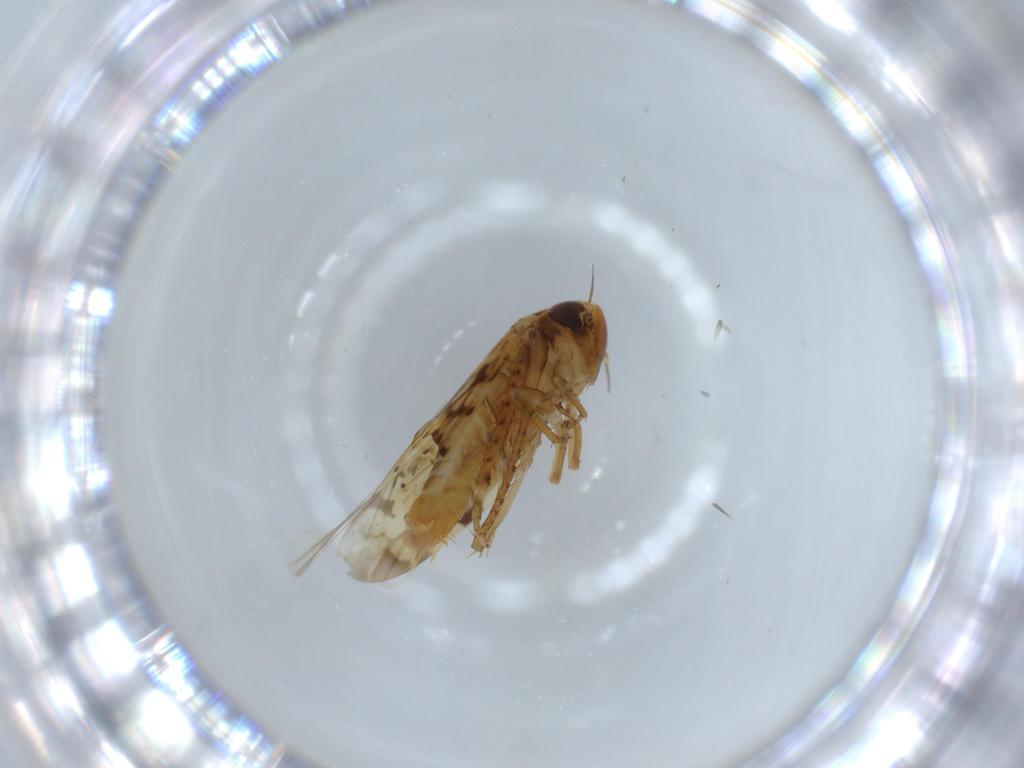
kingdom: Animalia
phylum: Arthropoda
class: Insecta
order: Hemiptera
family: Cicadellidae
